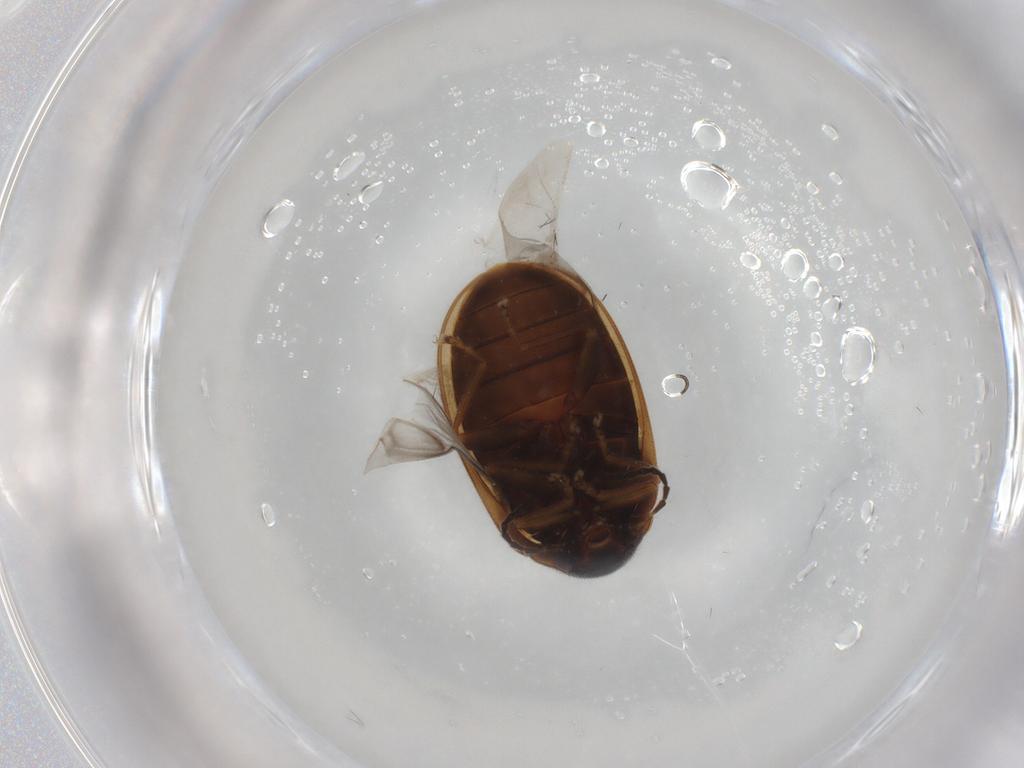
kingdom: Animalia
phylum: Arthropoda
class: Insecta
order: Coleoptera
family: Scirtidae
